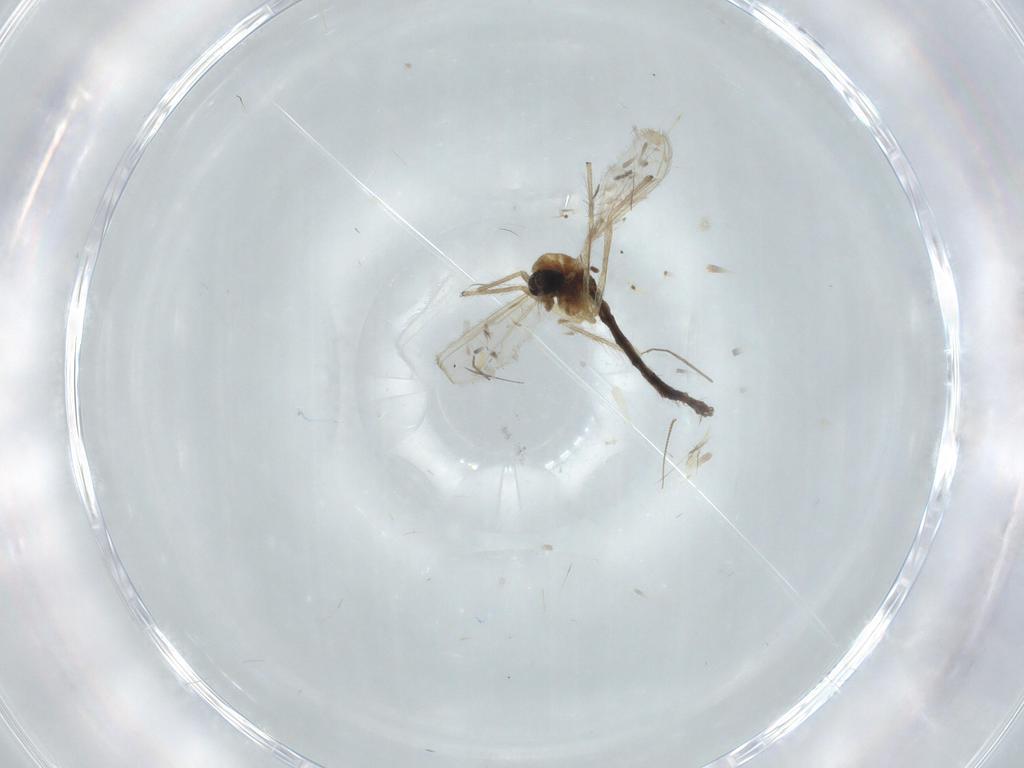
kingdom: Animalia
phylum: Arthropoda
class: Insecta
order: Diptera
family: Chironomidae
